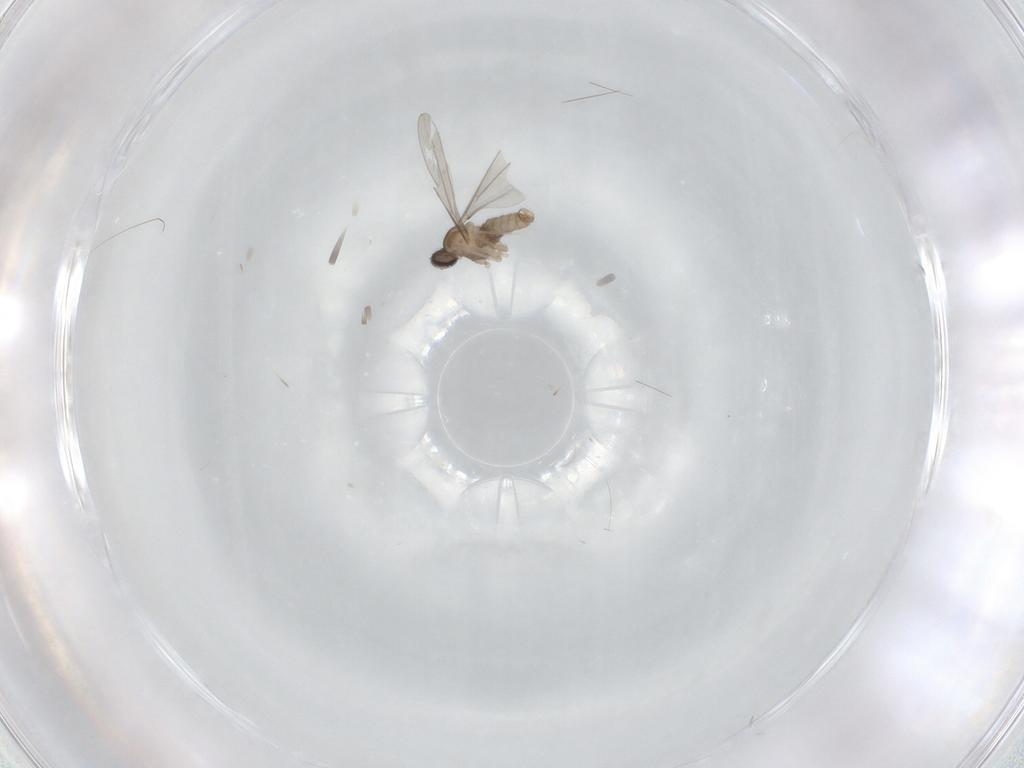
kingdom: Animalia
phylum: Arthropoda
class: Insecta
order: Diptera
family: Cecidomyiidae
